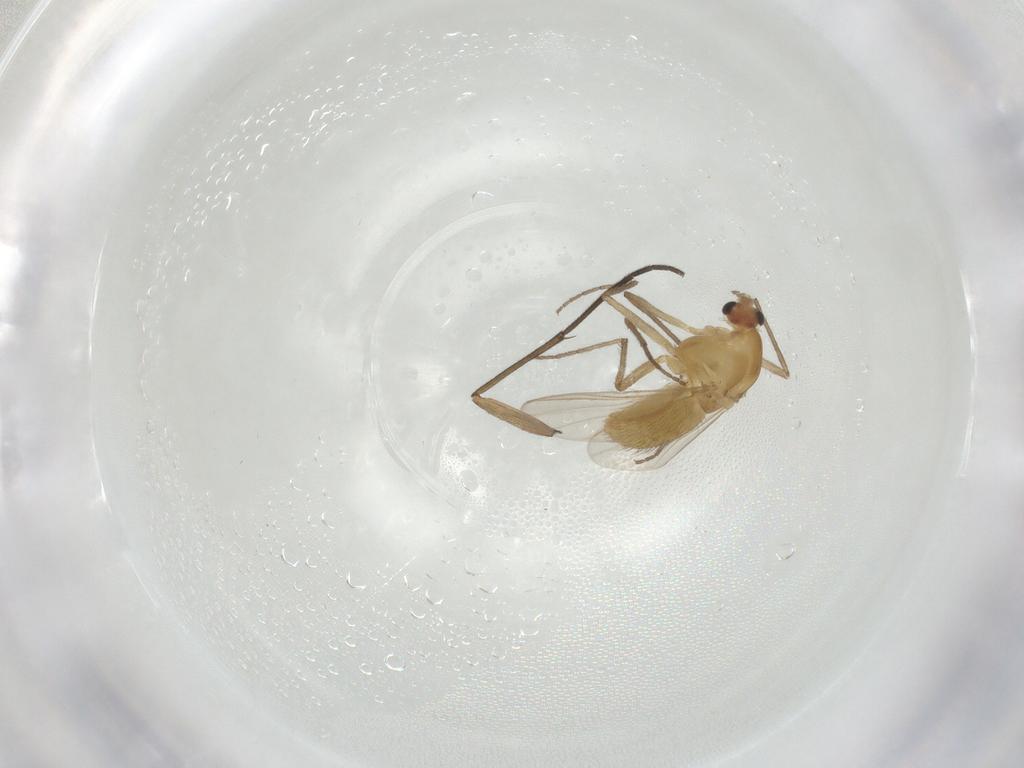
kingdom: Animalia
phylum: Arthropoda
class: Insecta
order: Diptera
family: Chironomidae
